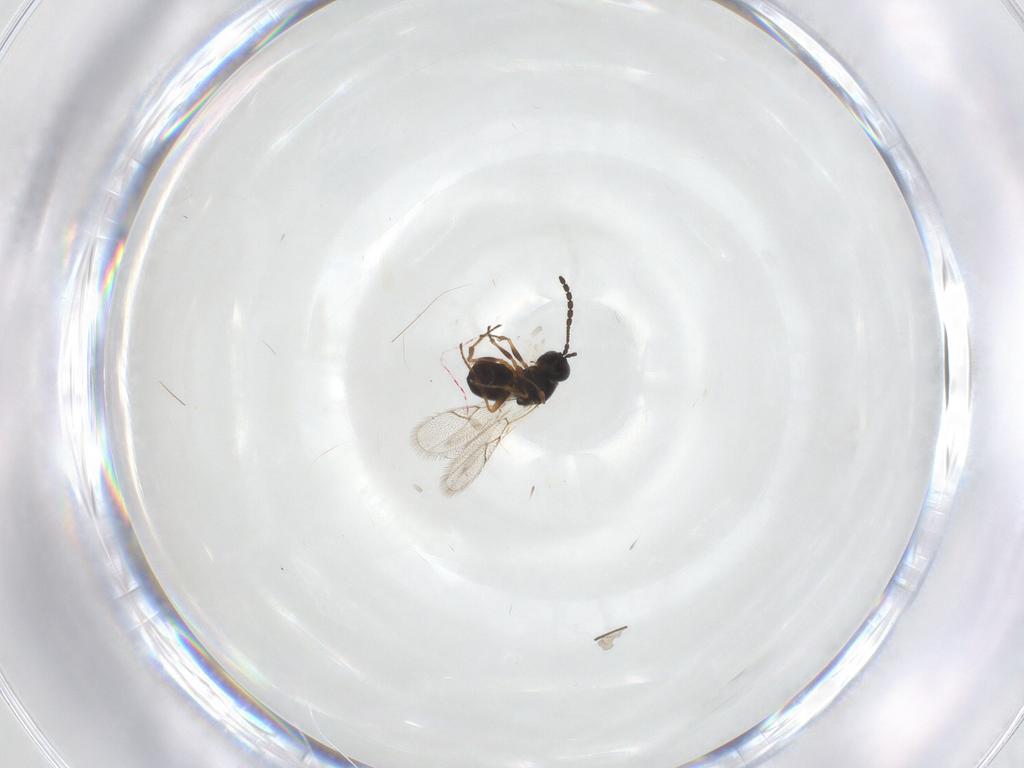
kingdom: Animalia
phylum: Arthropoda
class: Insecta
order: Hymenoptera
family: Figitidae
